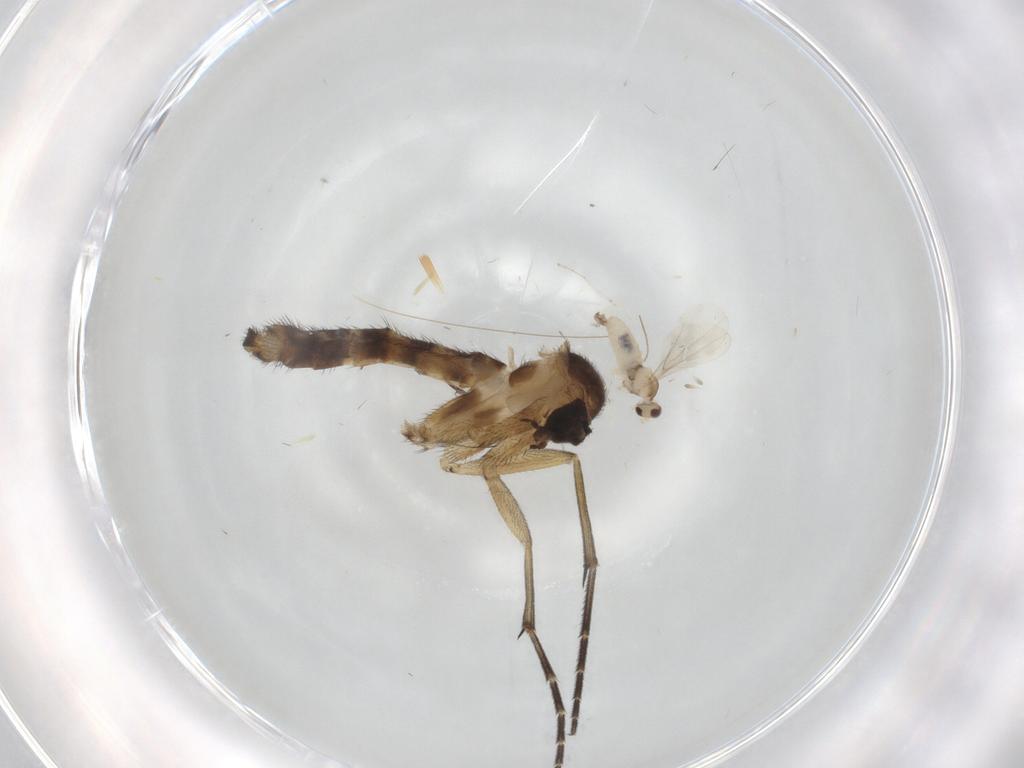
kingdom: Animalia
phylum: Arthropoda
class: Insecta
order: Diptera
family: Keroplatidae
